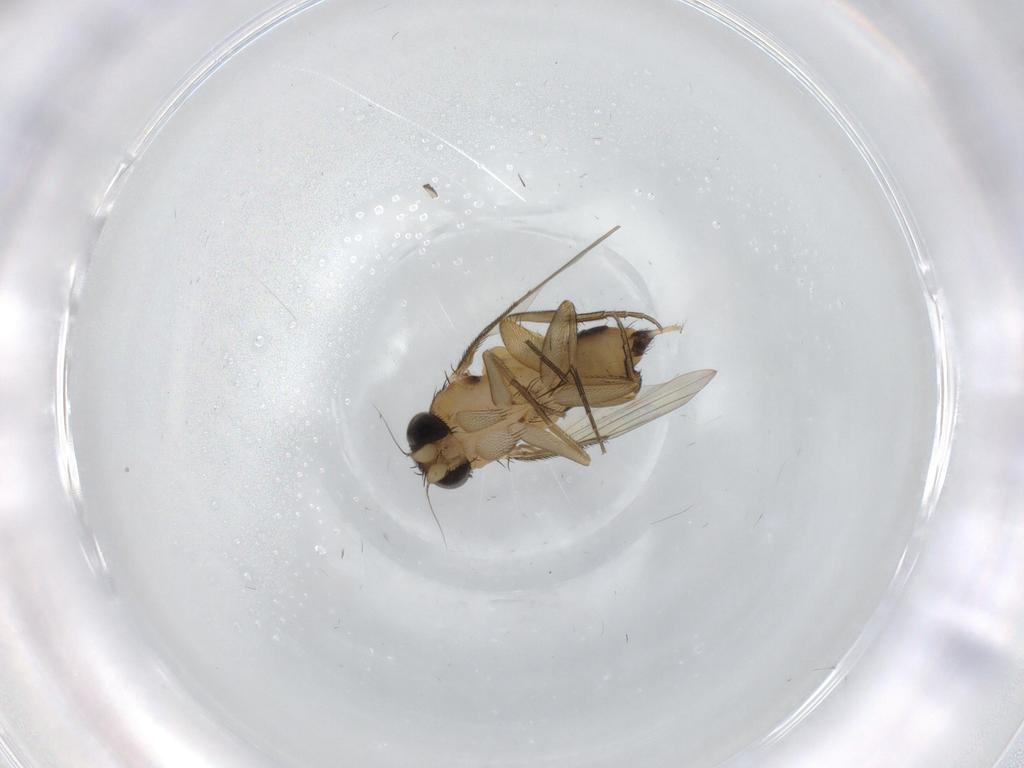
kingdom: Animalia
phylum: Arthropoda
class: Insecta
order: Diptera
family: Phoridae
